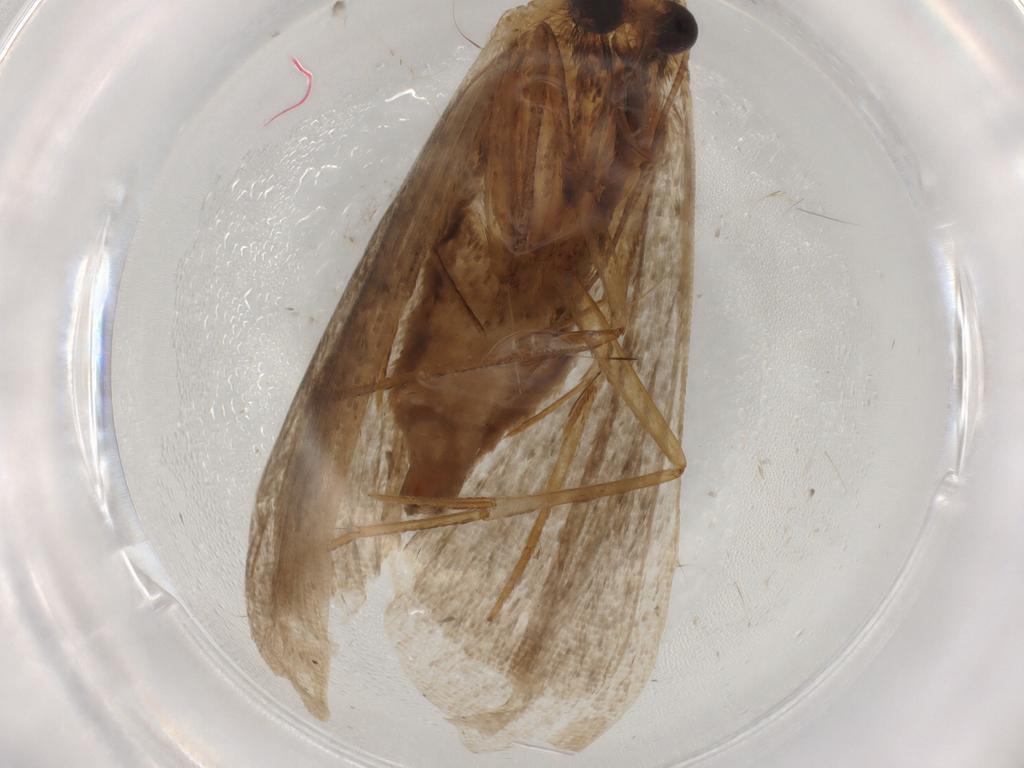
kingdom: Animalia
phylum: Arthropoda
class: Insecta
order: Lepidoptera
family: Erebidae
